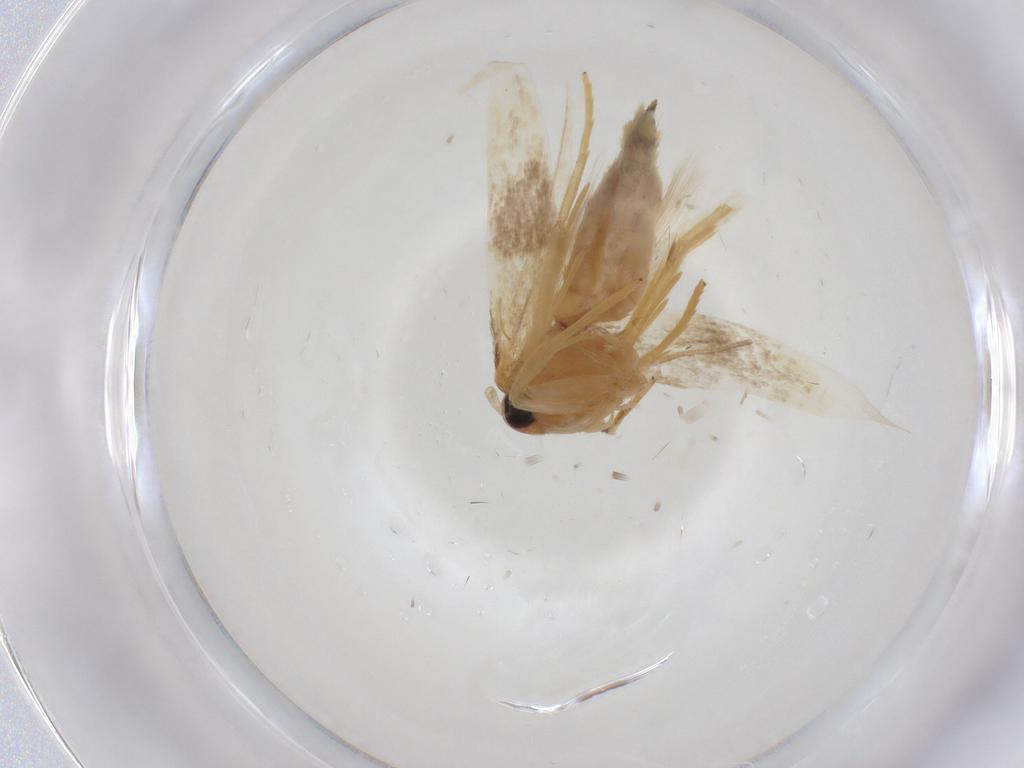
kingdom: Animalia
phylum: Arthropoda
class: Insecta
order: Lepidoptera
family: Erebidae
